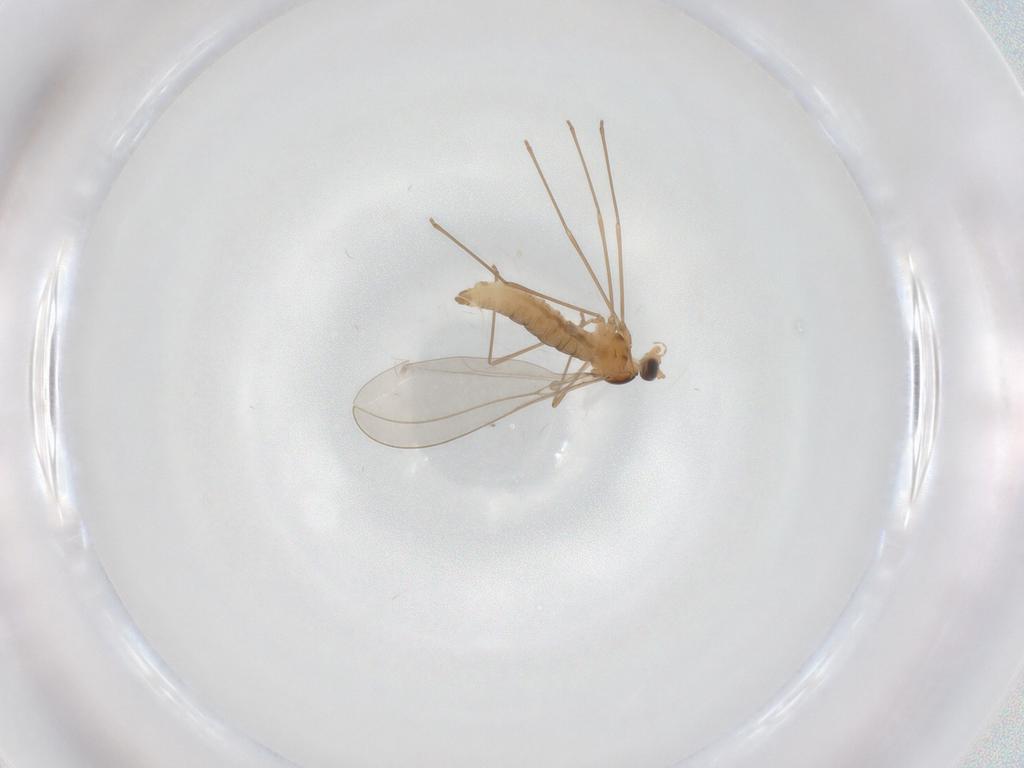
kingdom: Animalia
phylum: Arthropoda
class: Insecta
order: Diptera
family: Cecidomyiidae
